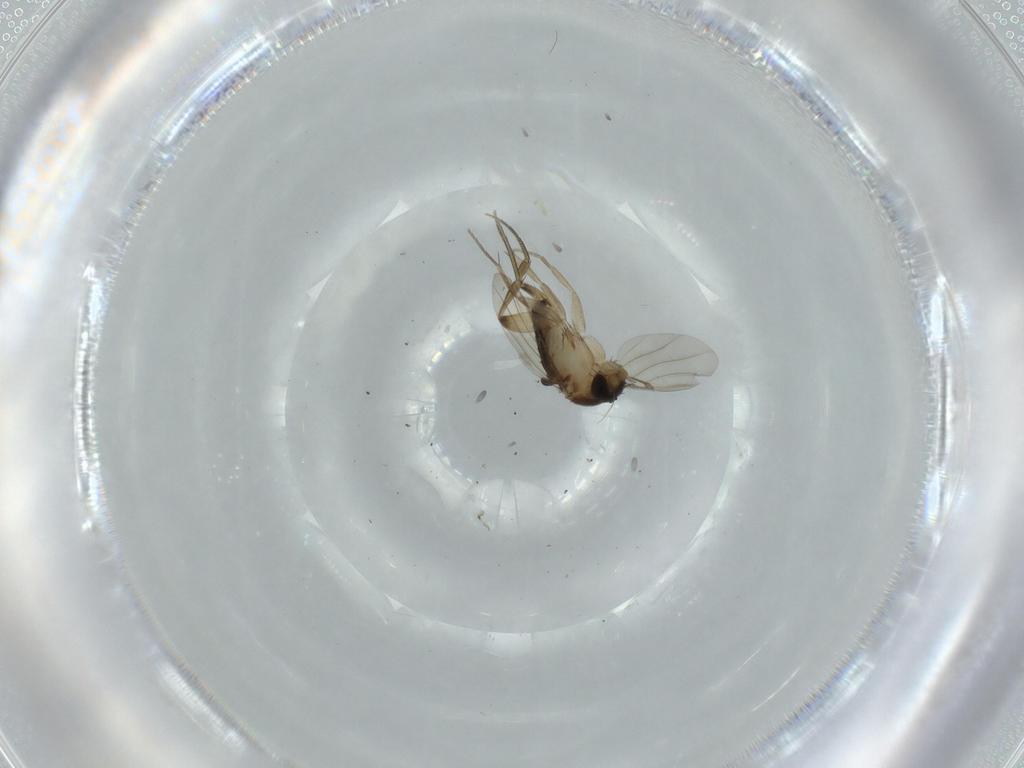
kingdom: Animalia
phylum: Arthropoda
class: Insecta
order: Diptera
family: Phoridae
